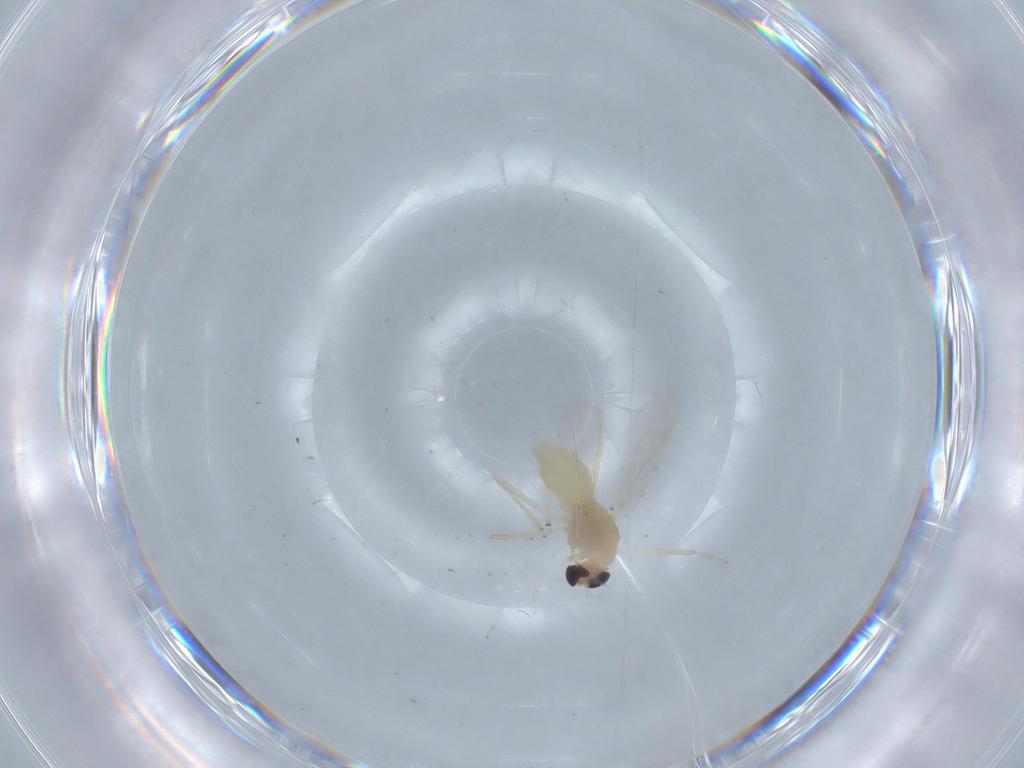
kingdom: Animalia
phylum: Arthropoda
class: Insecta
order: Diptera
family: Chironomidae
